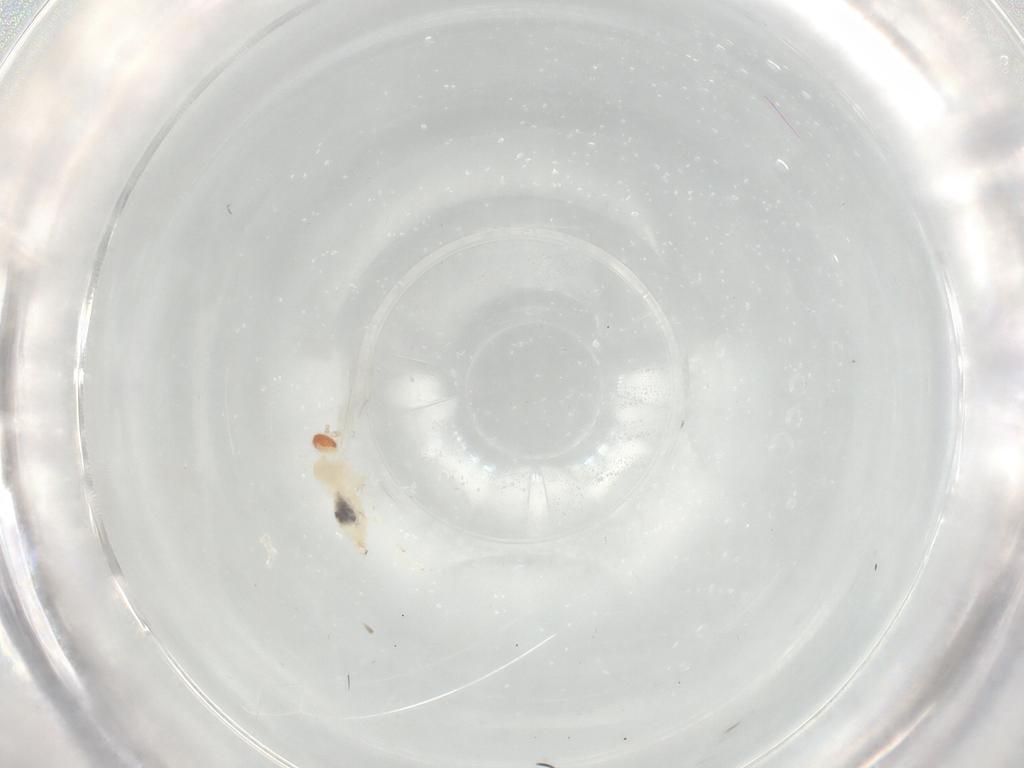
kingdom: Animalia
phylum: Arthropoda
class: Insecta
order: Diptera
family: Cecidomyiidae
